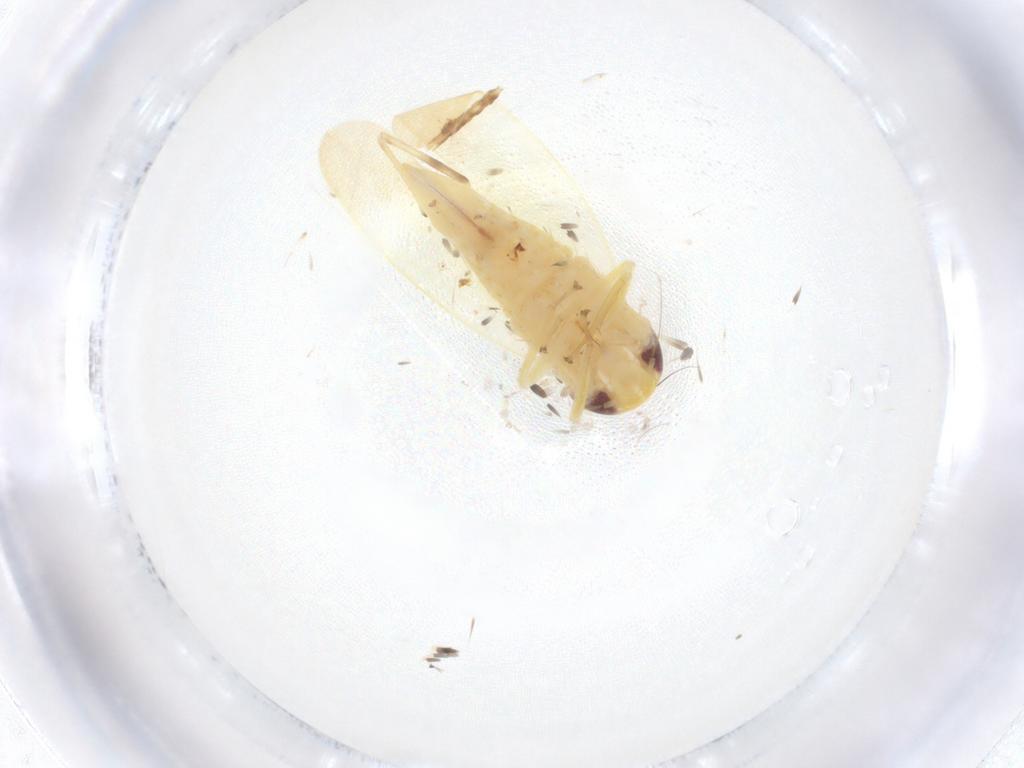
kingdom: Animalia
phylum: Arthropoda
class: Insecta
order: Hemiptera
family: Cicadellidae
